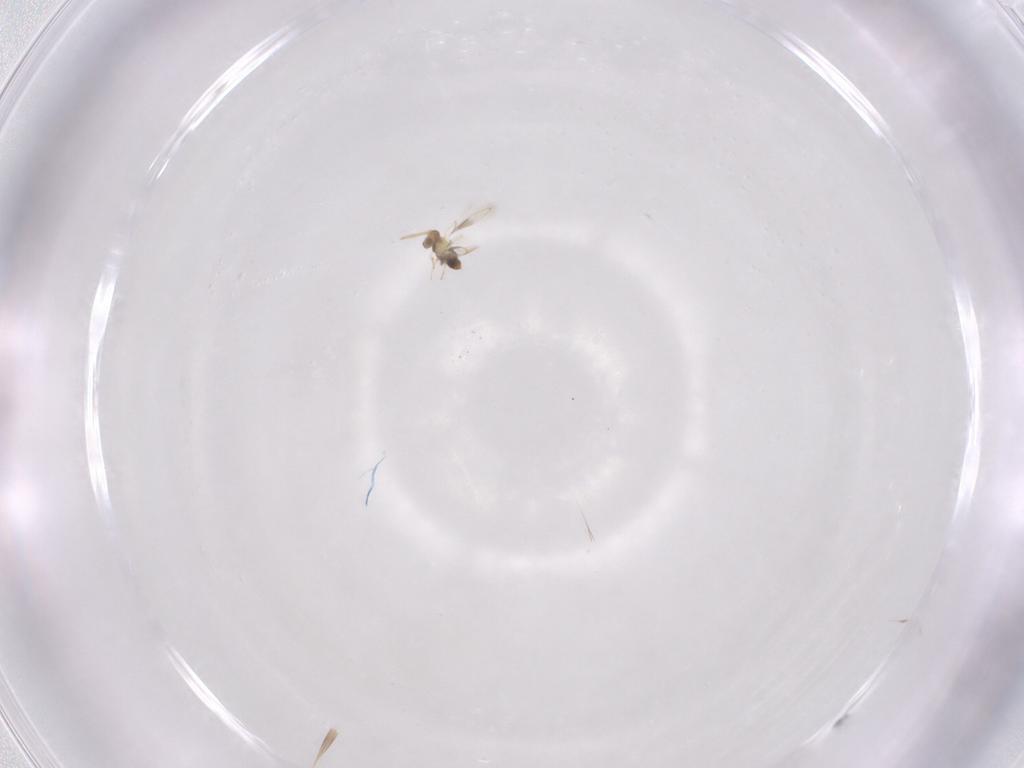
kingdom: Animalia
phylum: Arthropoda
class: Insecta
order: Hymenoptera
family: Aphelinidae
